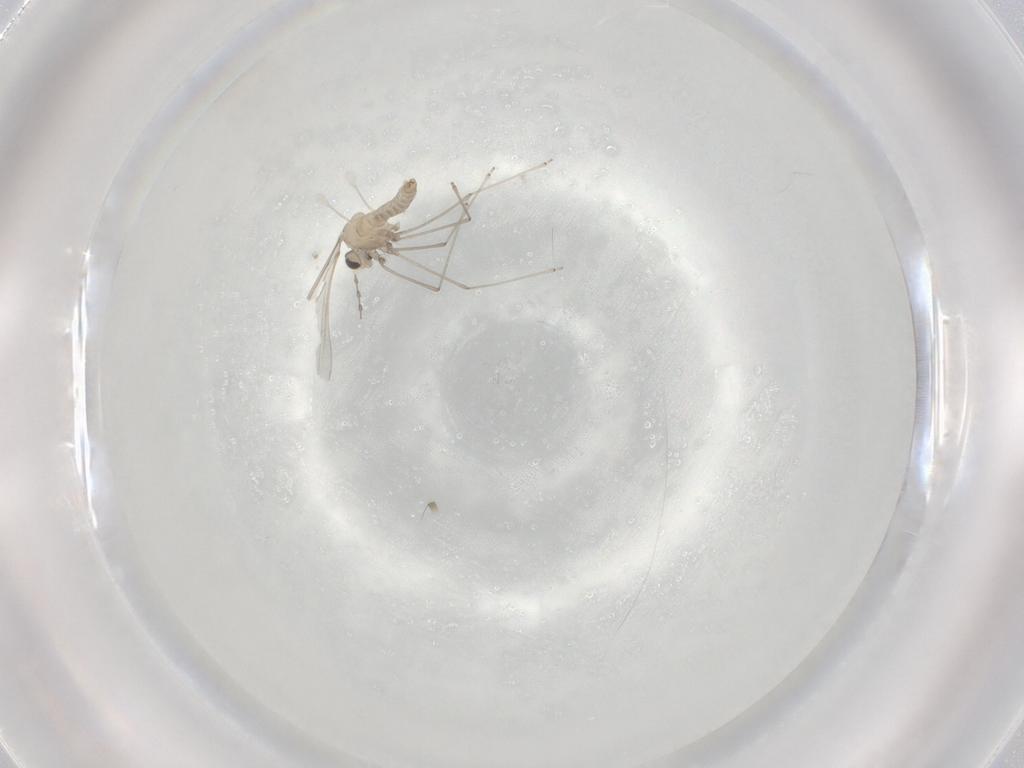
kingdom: Animalia
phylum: Arthropoda
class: Insecta
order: Diptera
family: Cecidomyiidae
